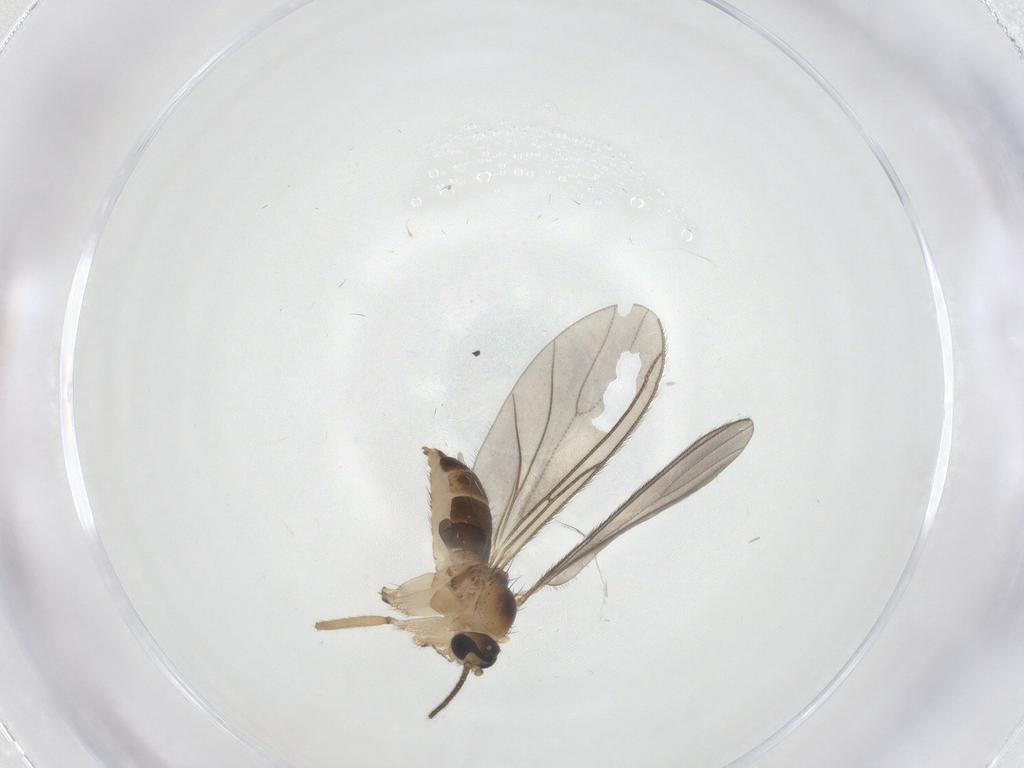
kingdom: Animalia
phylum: Arthropoda
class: Insecta
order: Diptera
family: Sciaridae
